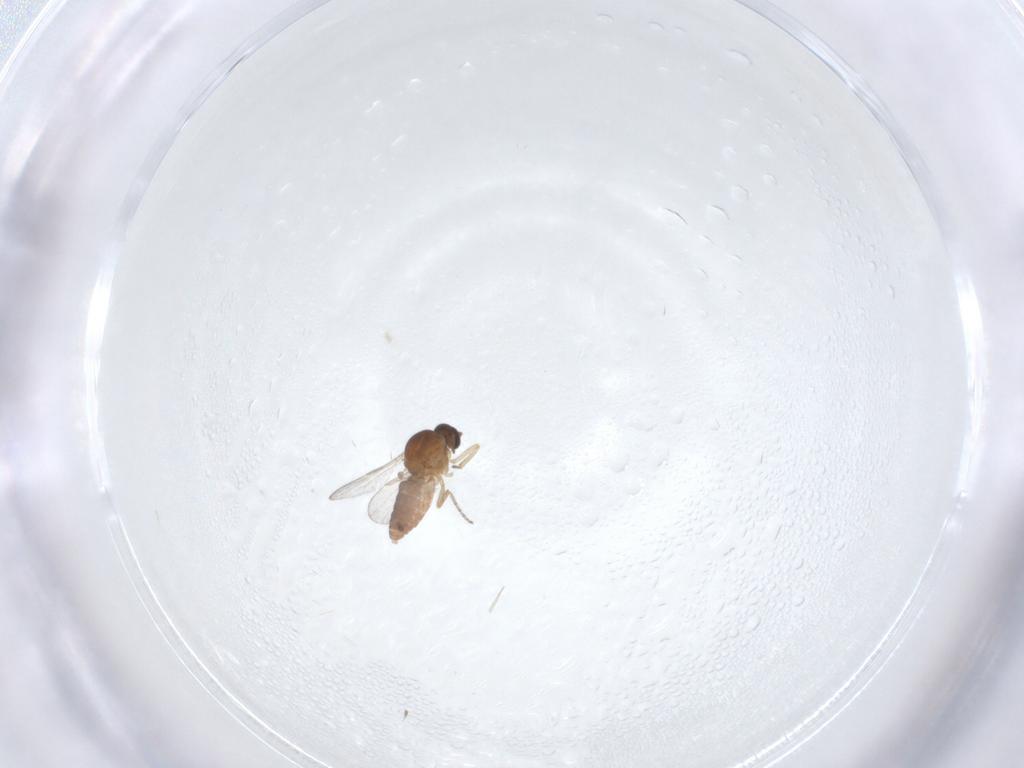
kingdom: Animalia
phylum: Arthropoda
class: Insecta
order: Diptera
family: Ceratopogonidae
